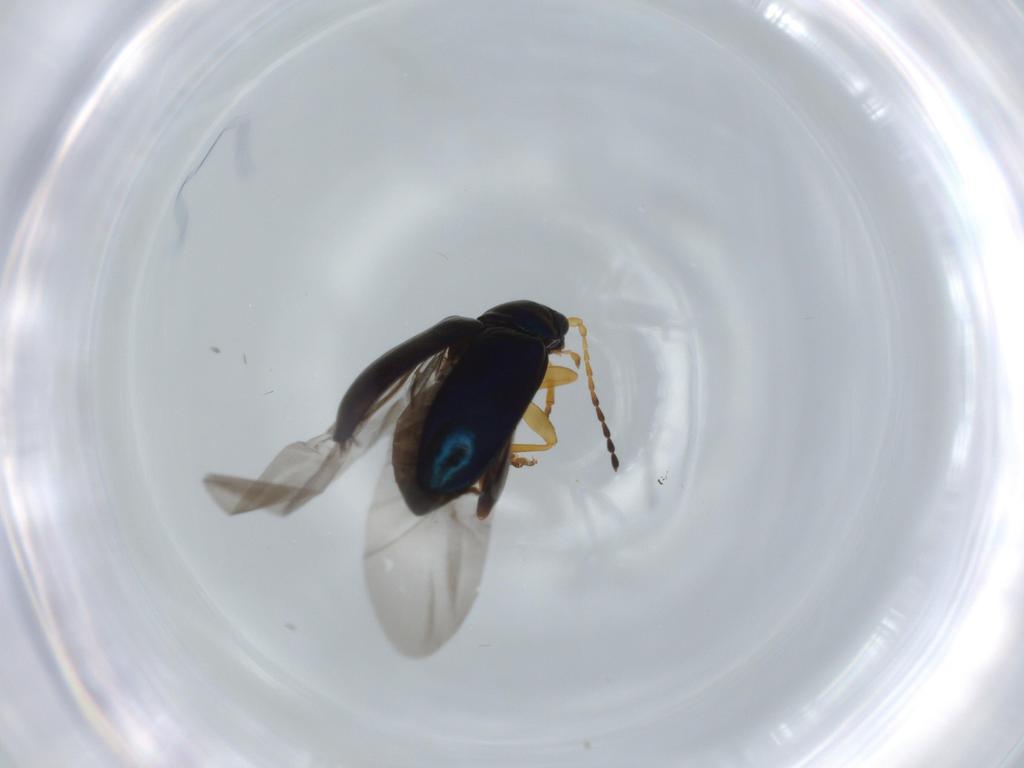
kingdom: Animalia
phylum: Arthropoda
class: Insecta
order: Coleoptera
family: Chrysomelidae
